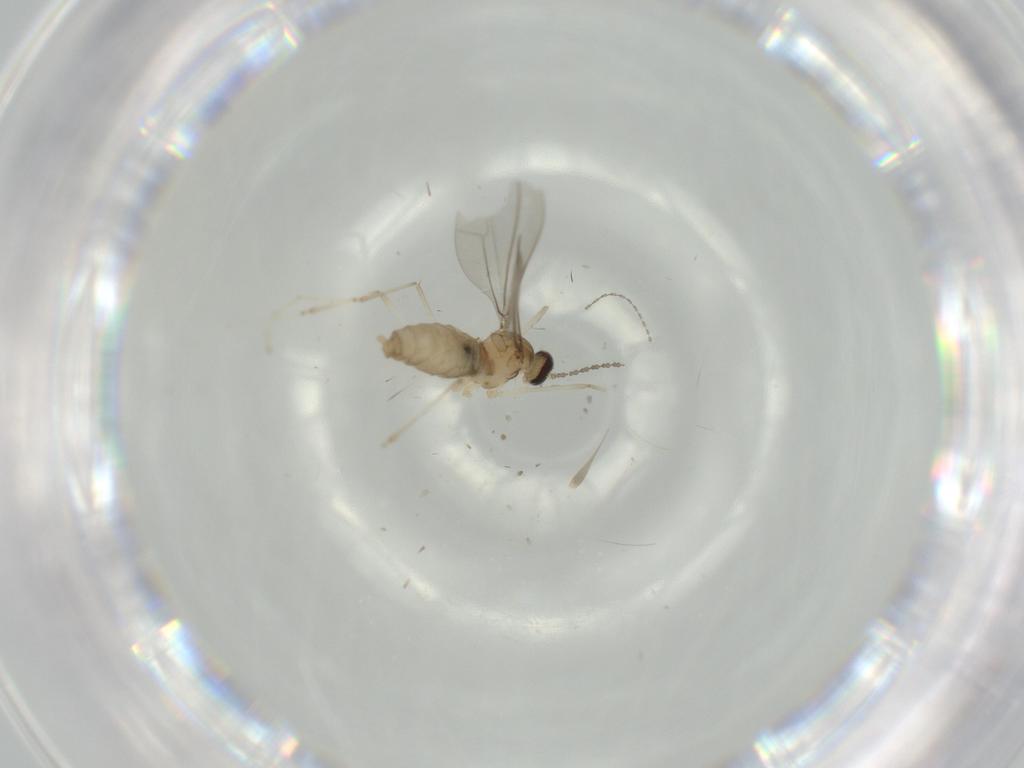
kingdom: Animalia
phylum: Arthropoda
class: Insecta
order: Diptera
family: Cecidomyiidae
